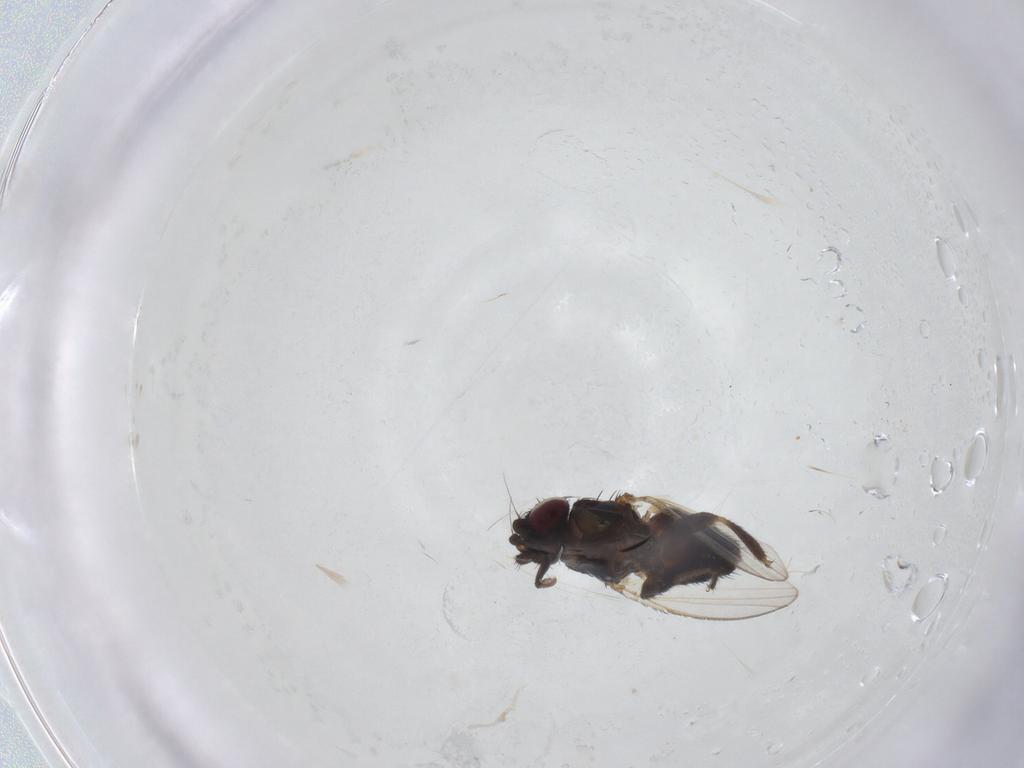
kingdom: Animalia
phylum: Arthropoda
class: Insecta
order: Diptera
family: Milichiidae
